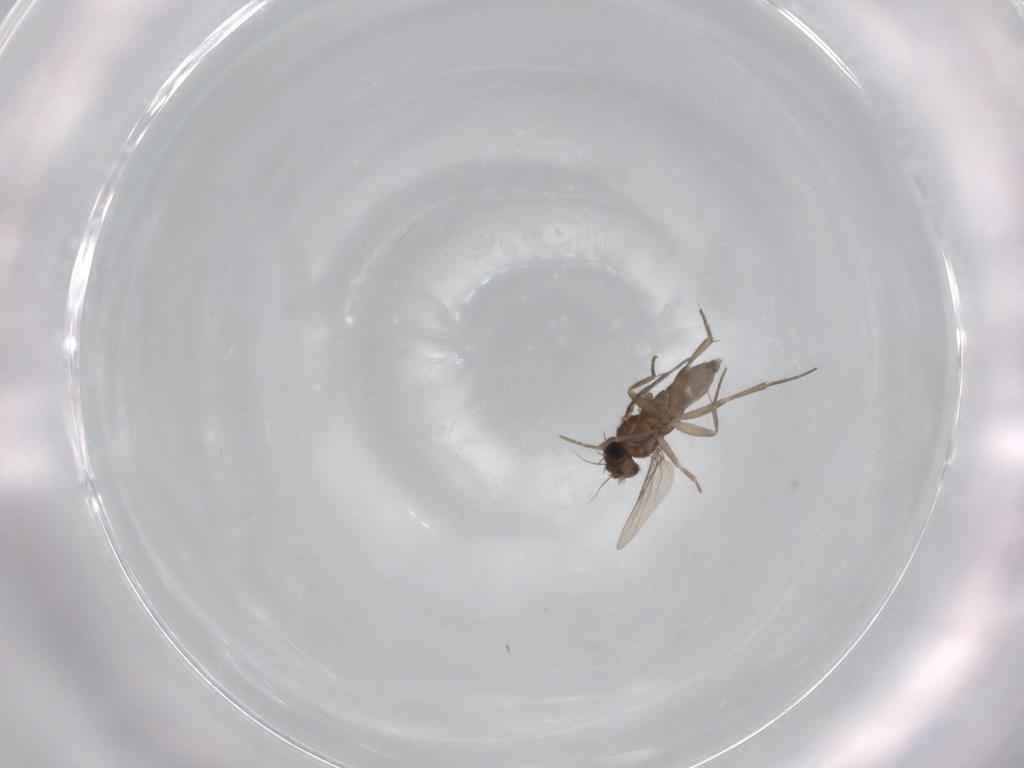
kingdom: Animalia
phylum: Arthropoda
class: Insecta
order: Diptera
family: Phoridae
